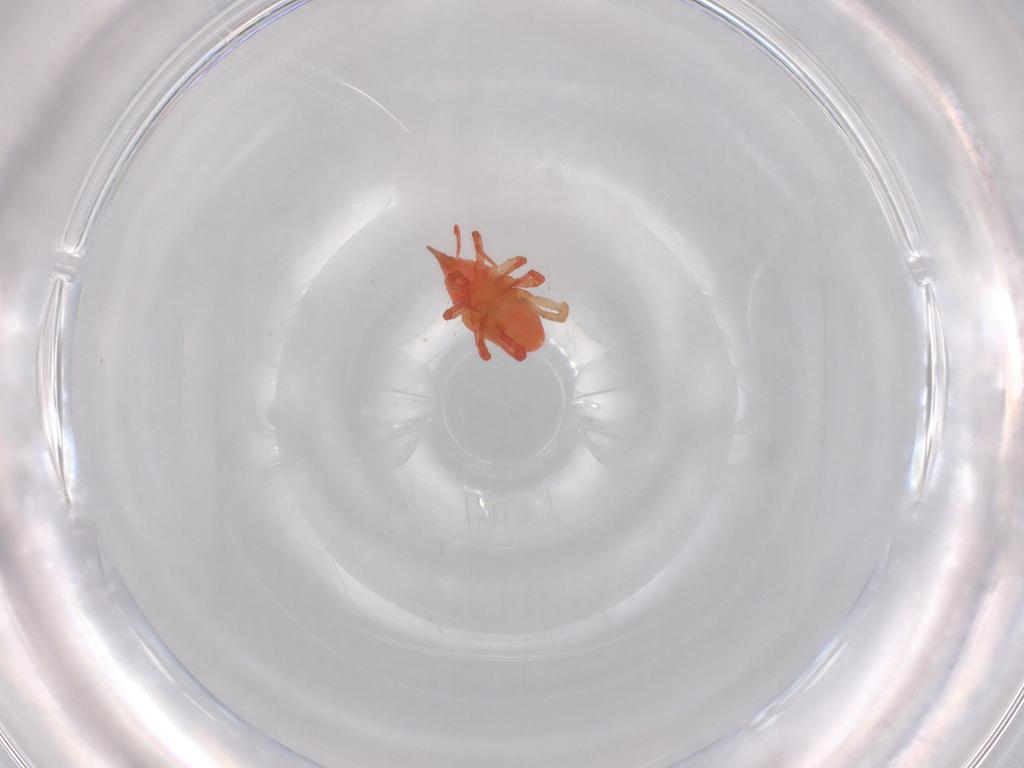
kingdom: Animalia
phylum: Arthropoda
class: Arachnida
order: Trombidiformes
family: Tydeidae
